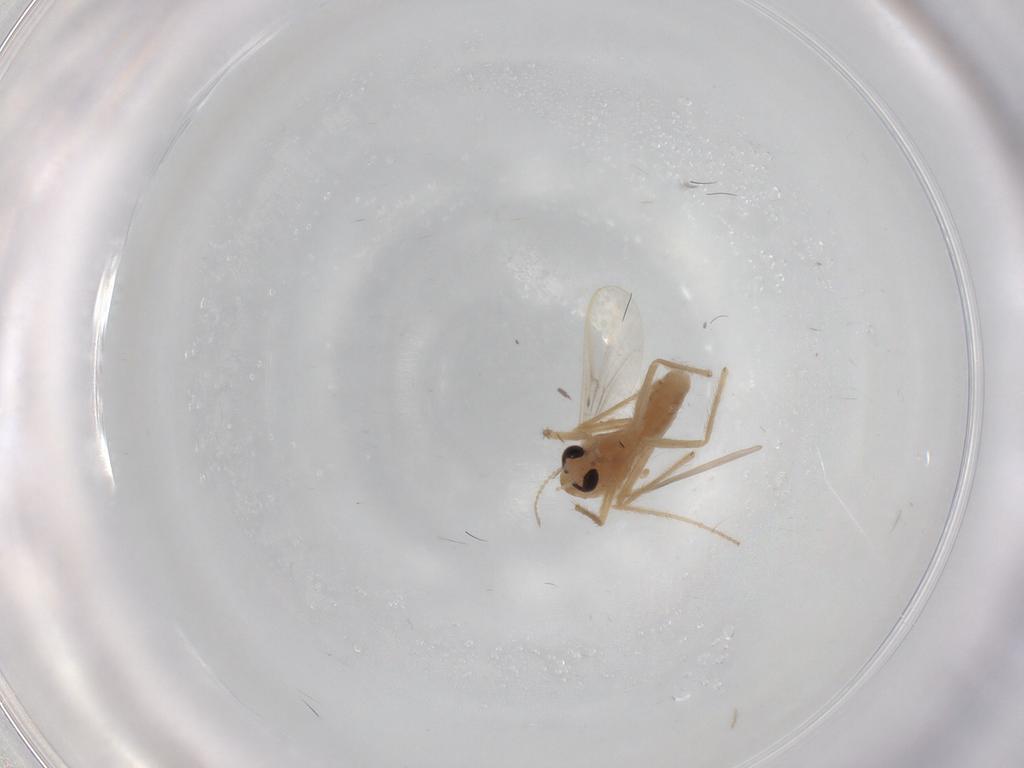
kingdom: Animalia
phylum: Arthropoda
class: Insecta
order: Diptera
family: Chironomidae
